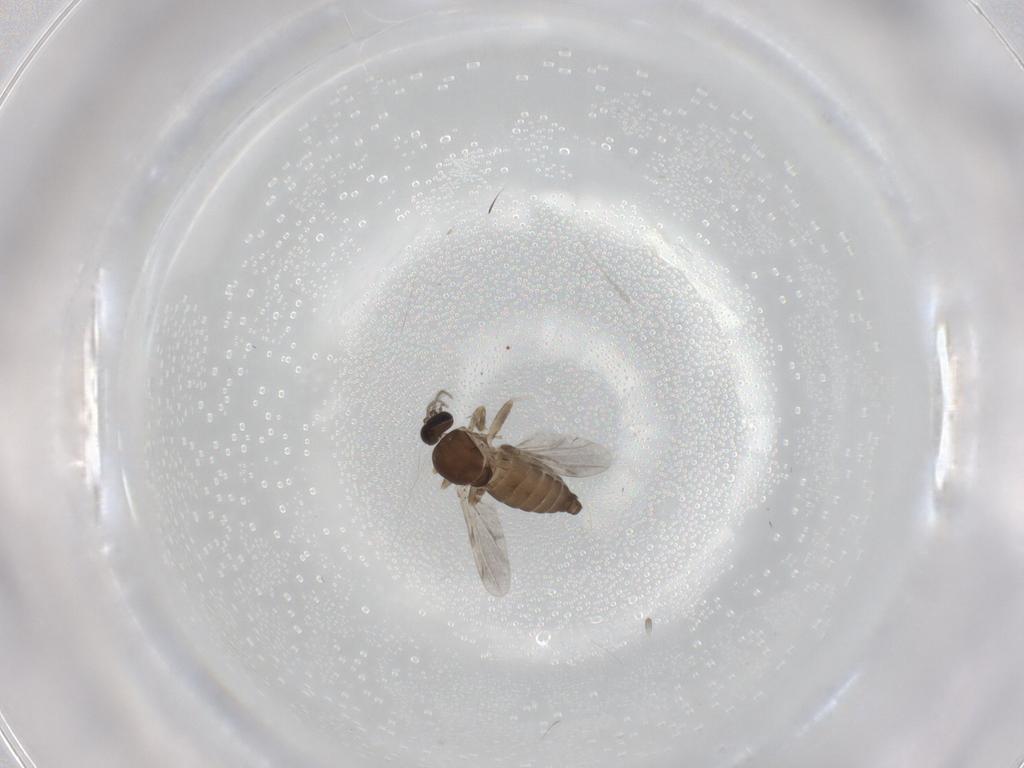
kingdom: Animalia
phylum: Arthropoda
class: Insecta
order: Diptera
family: Ceratopogonidae
